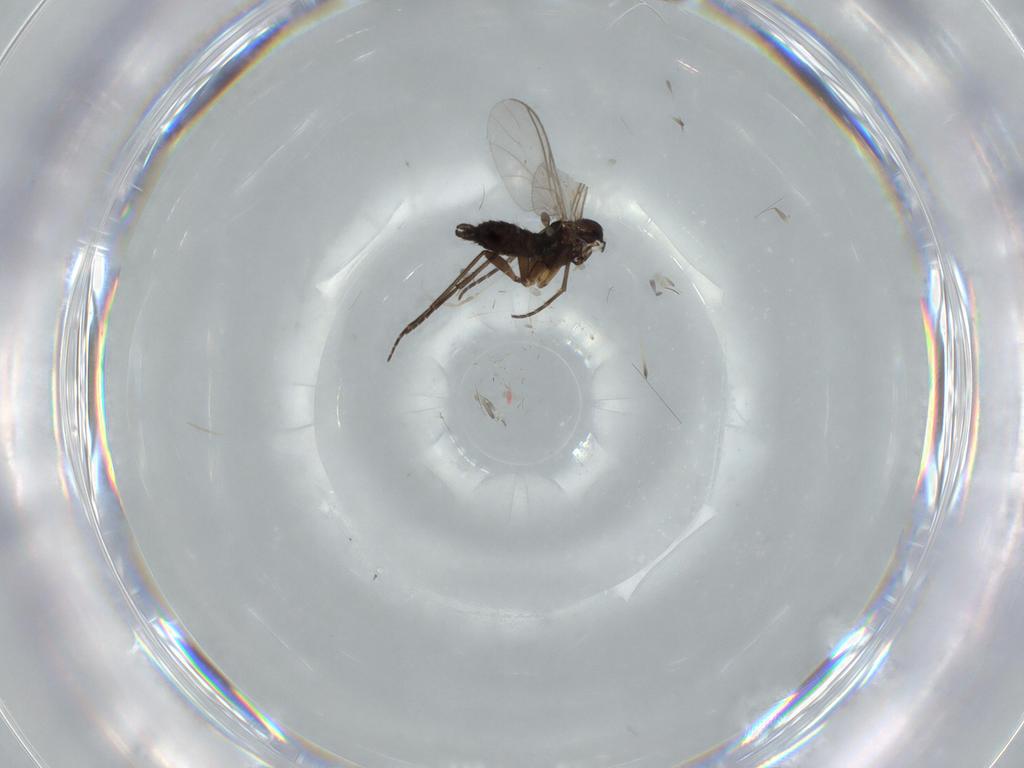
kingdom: Animalia
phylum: Arthropoda
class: Insecta
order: Diptera
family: Sciaridae
